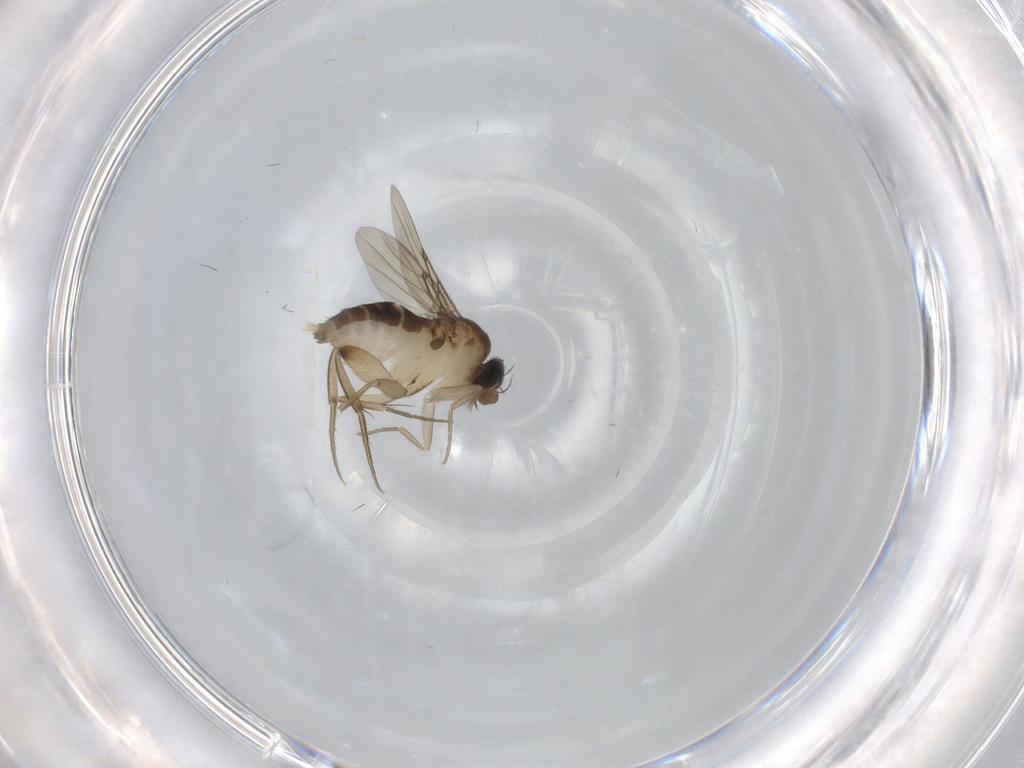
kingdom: Animalia
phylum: Arthropoda
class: Insecta
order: Diptera
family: Phoridae
